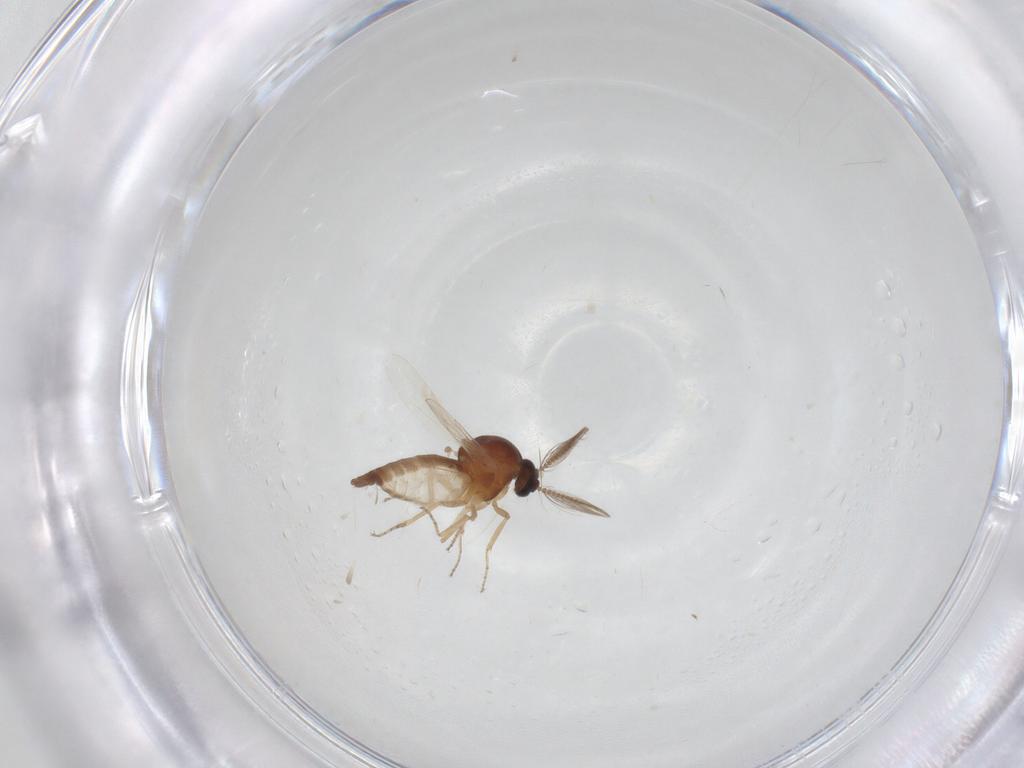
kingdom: Animalia
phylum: Arthropoda
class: Insecta
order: Diptera
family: Ceratopogonidae
